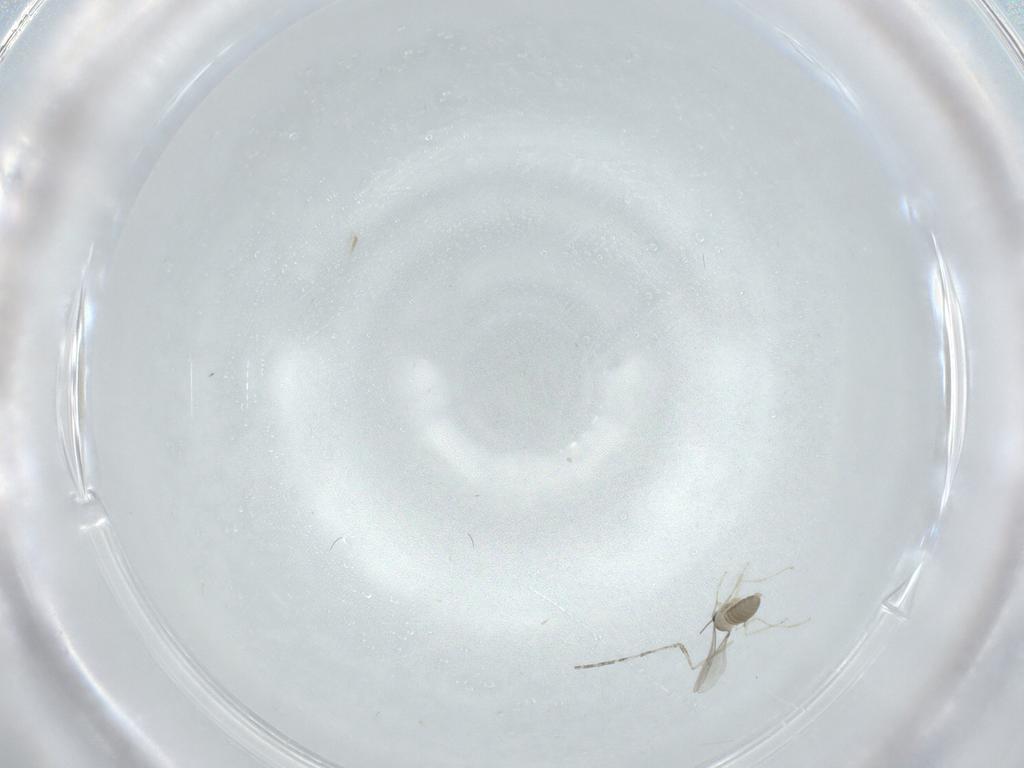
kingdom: Animalia
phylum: Arthropoda
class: Insecta
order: Diptera
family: Cecidomyiidae
